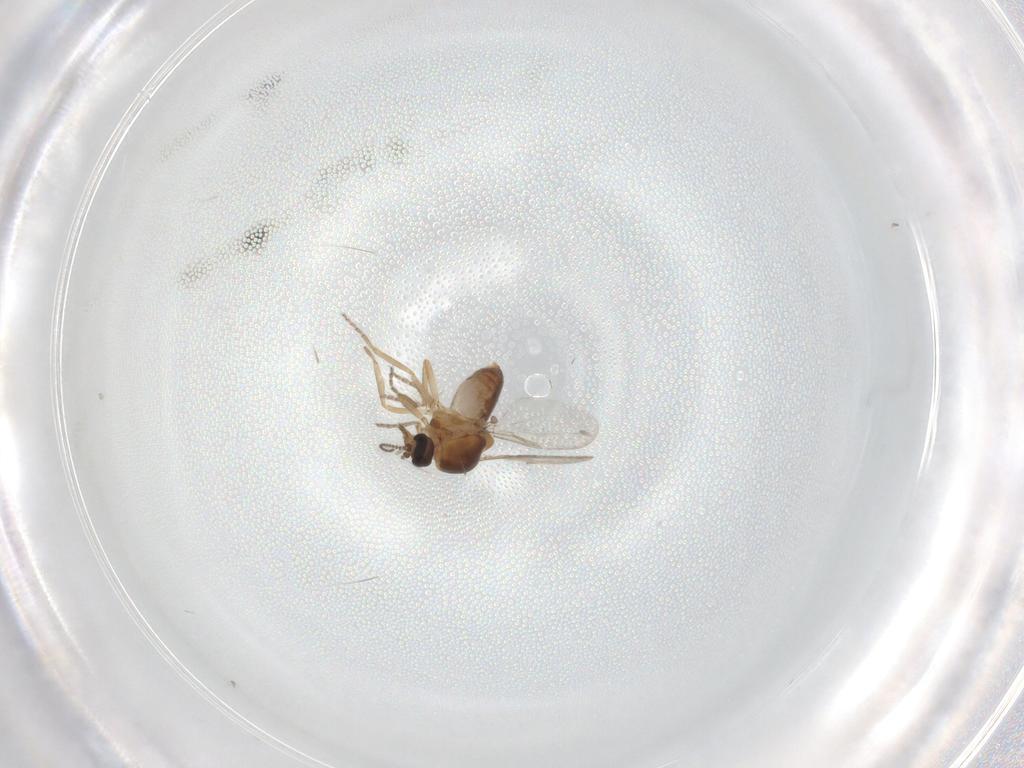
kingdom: Animalia
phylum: Arthropoda
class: Insecta
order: Diptera
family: Ceratopogonidae
